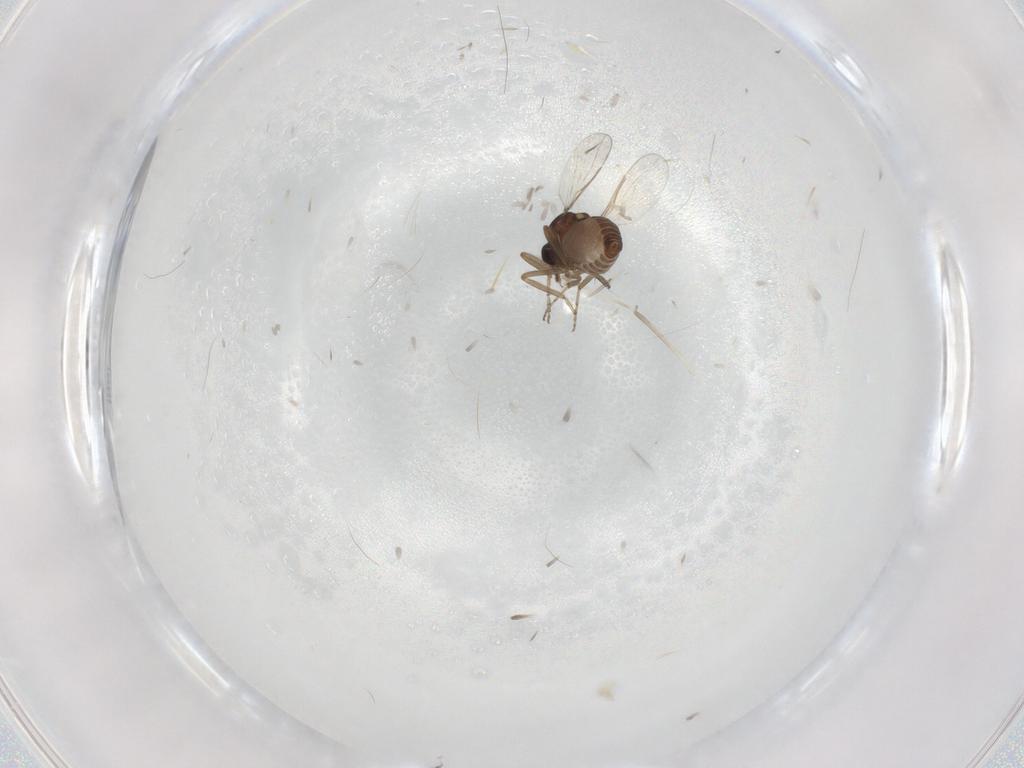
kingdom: Animalia
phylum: Arthropoda
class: Insecta
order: Diptera
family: Ceratopogonidae
